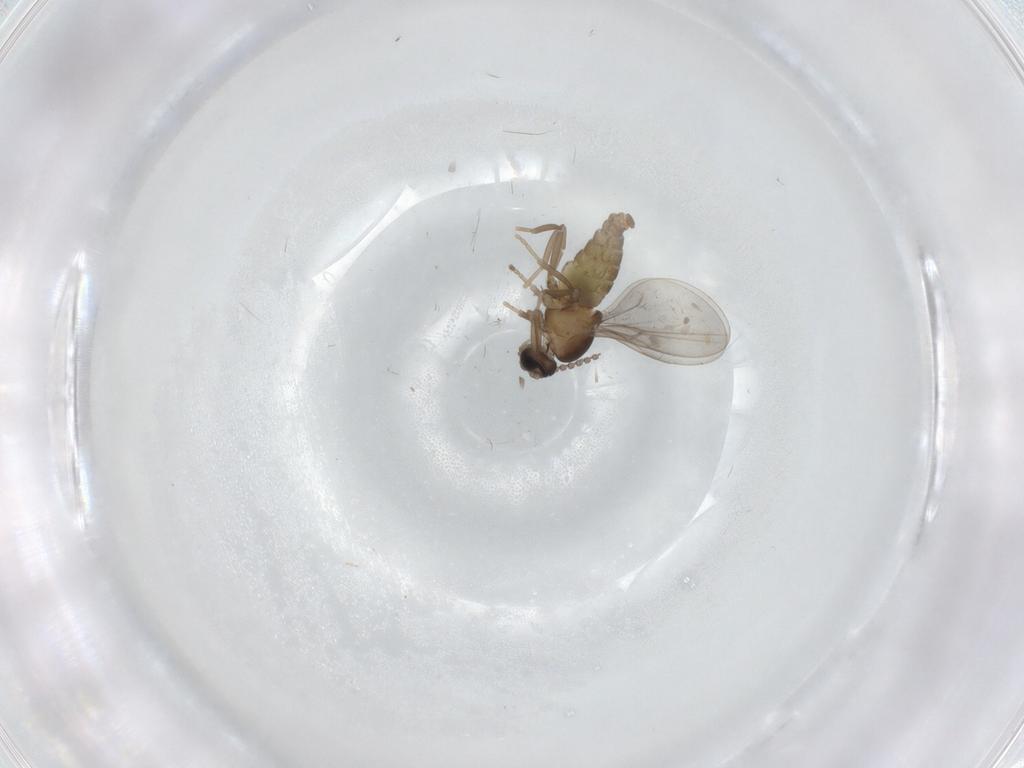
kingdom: Animalia
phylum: Arthropoda
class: Insecta
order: Diptera
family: Cecidomyiidae
